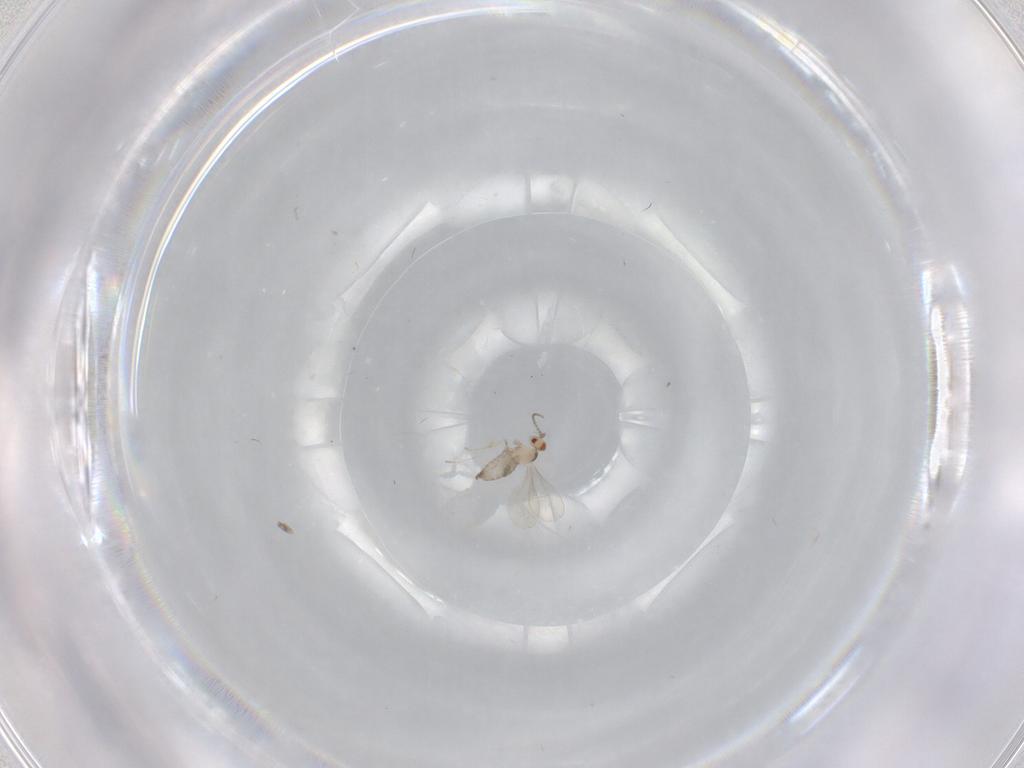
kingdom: Animalia
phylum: Arthropoda
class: Insecta
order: Diptera
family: Cecidomyiidae
